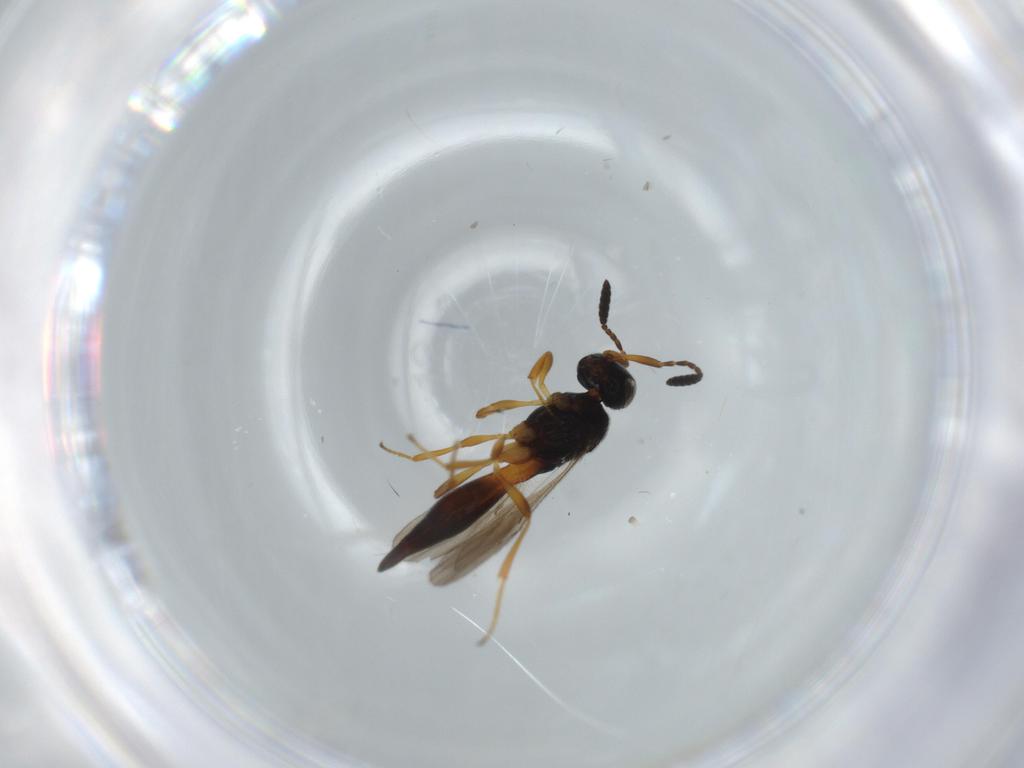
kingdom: Animalia
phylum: Arthropoda
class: Insecta
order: Hymenoptera
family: Scelionidae
